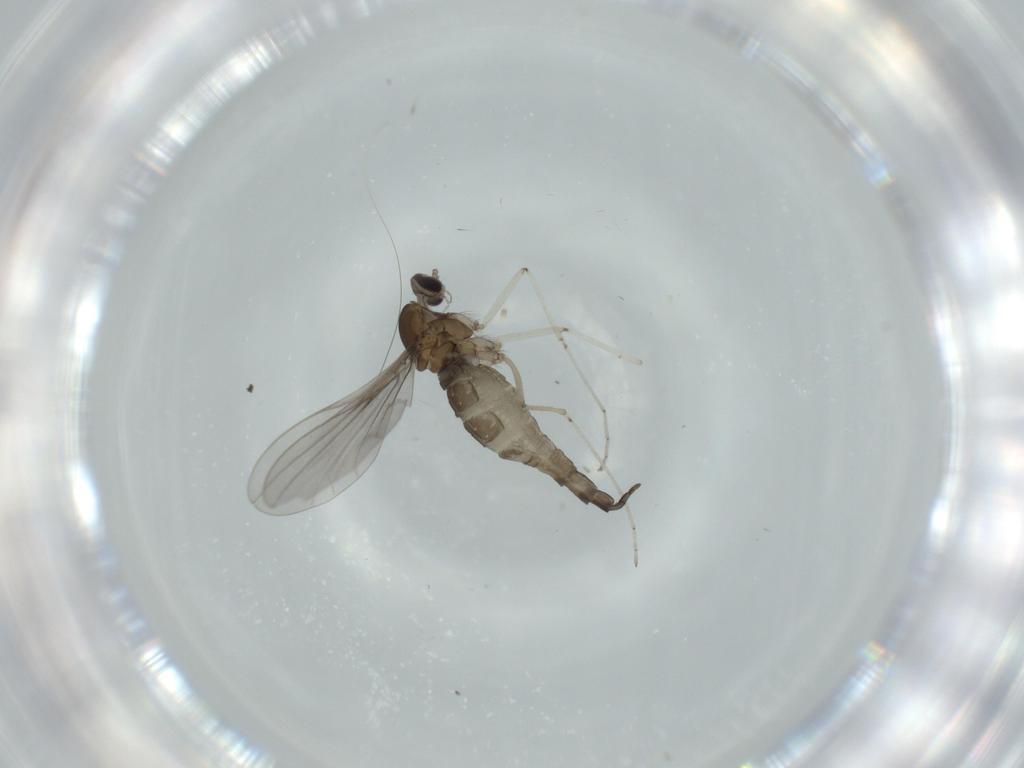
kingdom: Animalia
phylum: Arthropoda
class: Insecta
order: Diptera
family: Cecidomyiidae
